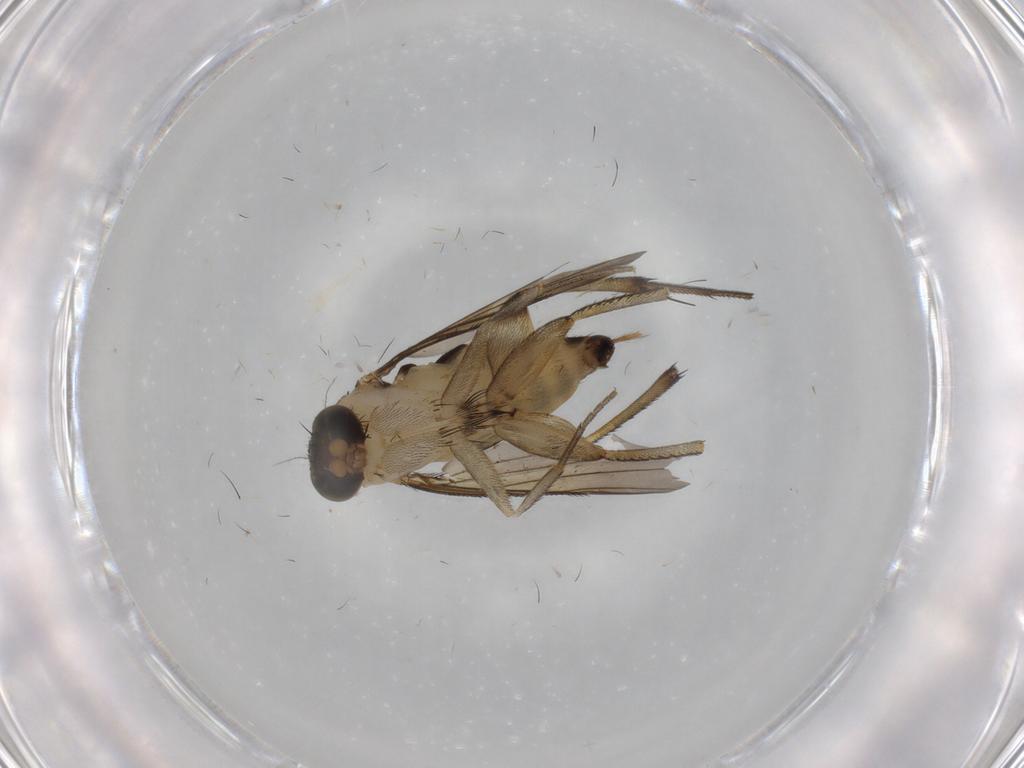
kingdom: Animalia
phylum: Arthropoda
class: Insecta
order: Diptera
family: Phoridae
